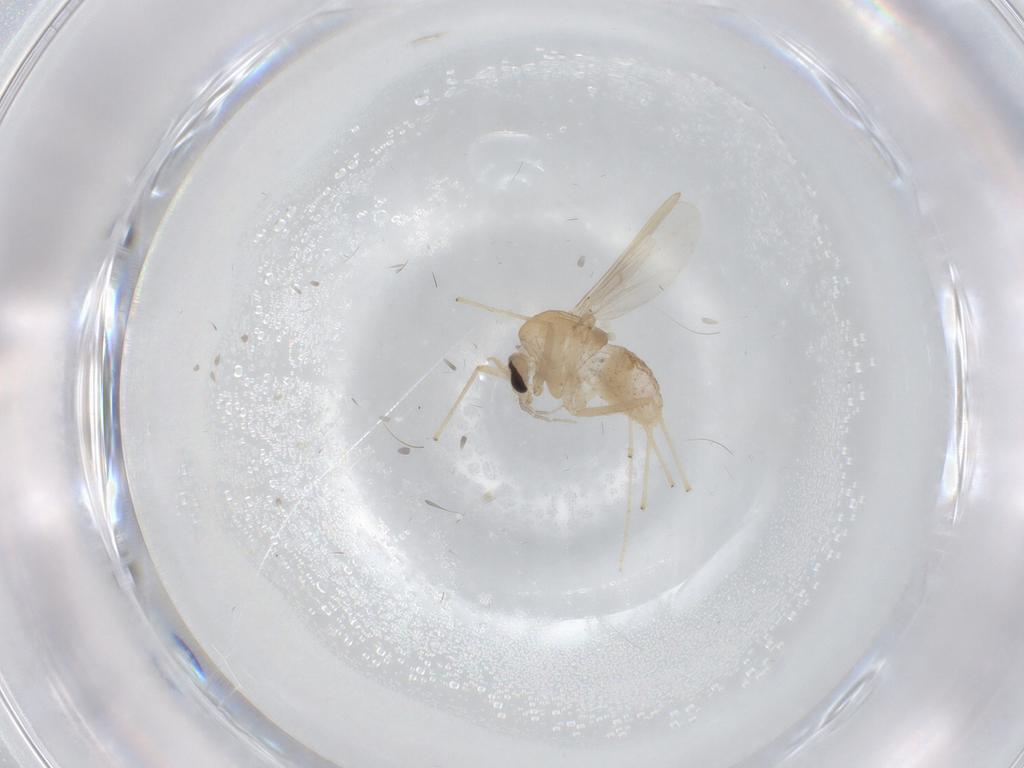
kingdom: Animalia
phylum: Arthropoda
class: Insecta
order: Diptera
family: Chironomidae
